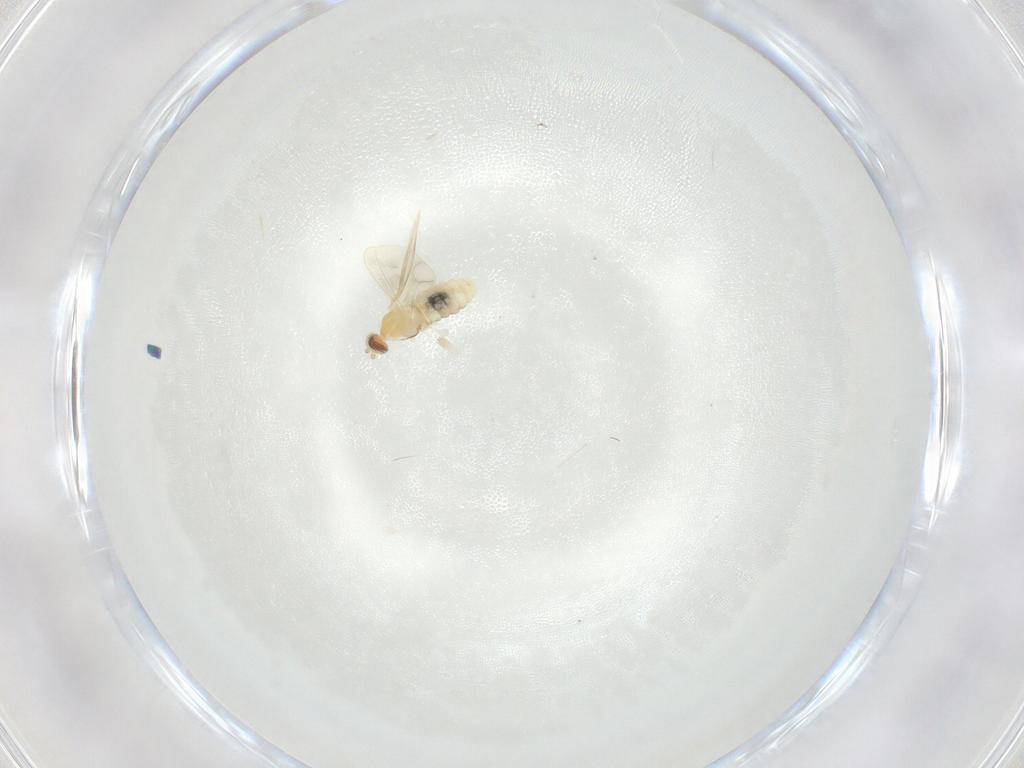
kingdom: Animalia
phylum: Arthropoda
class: Insecta
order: Diptera
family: Cecidomyiidae
